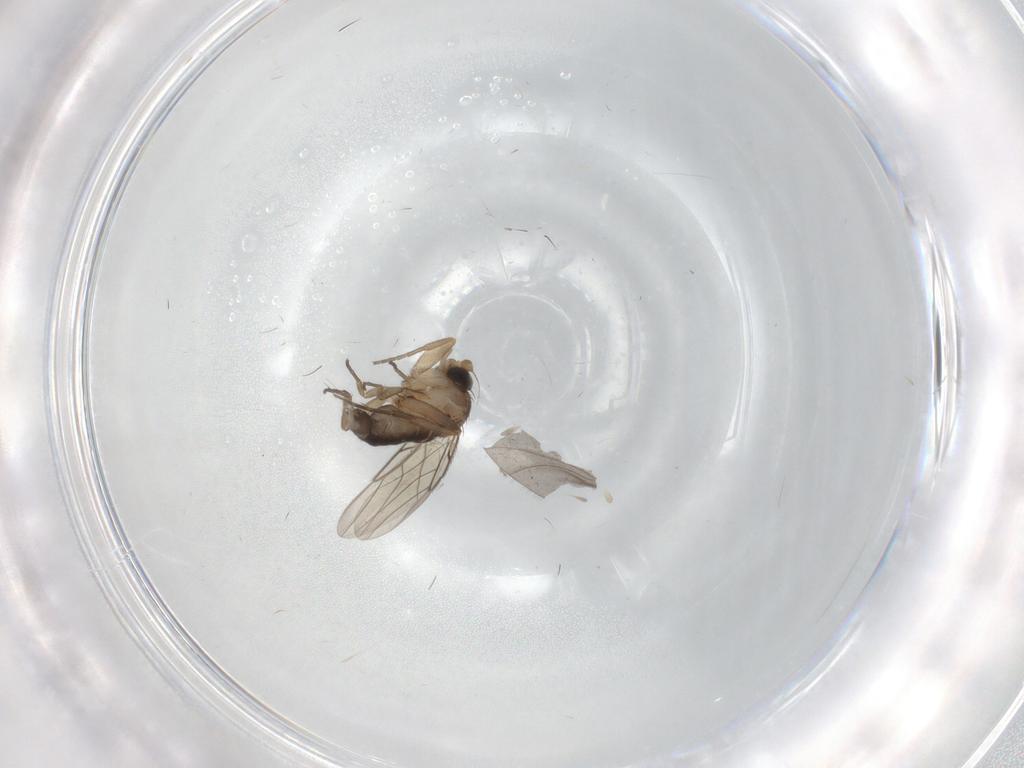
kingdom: Animalia
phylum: Arthropoda
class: Insecta
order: Diptera
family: Phoridae
